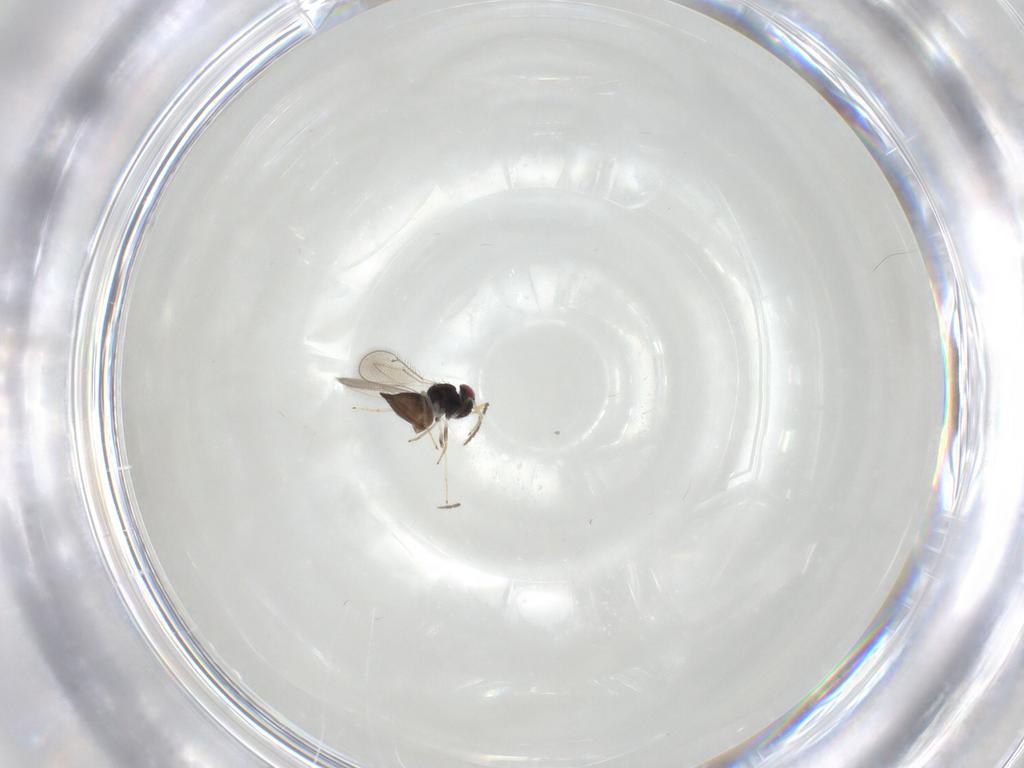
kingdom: Animalia
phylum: Arthropoda
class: Insecta
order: Hymenoptera
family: Eulophidae
